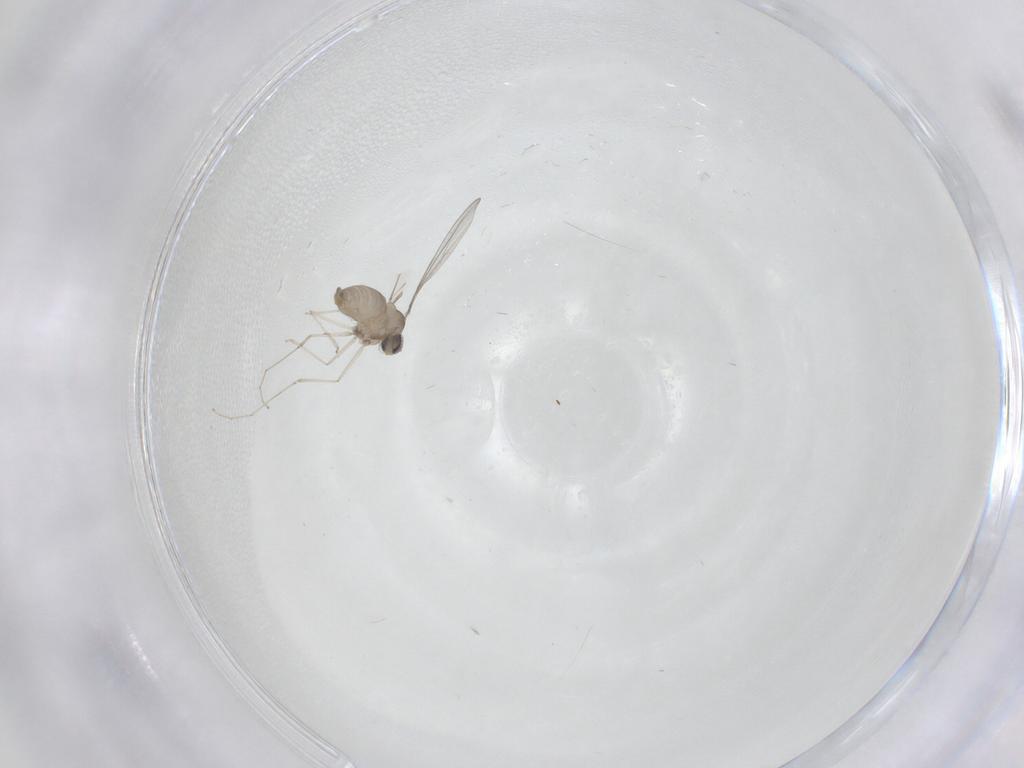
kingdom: Animalia
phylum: Arthropoda
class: Insecta
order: Diptera
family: Cecidomyiidae
